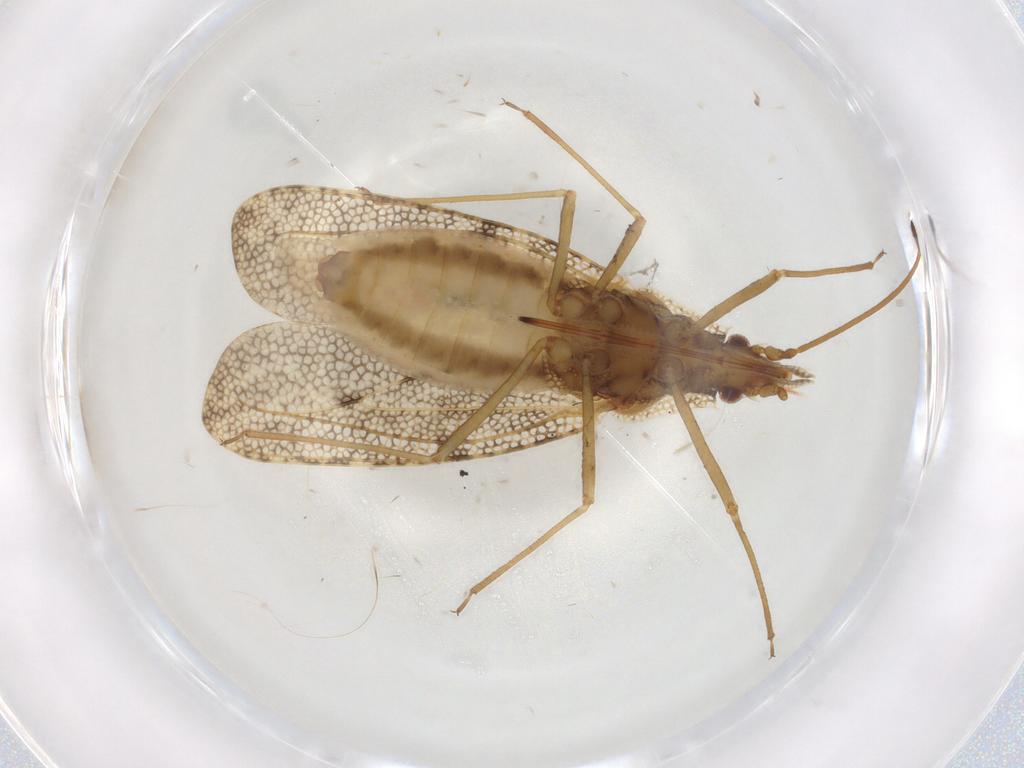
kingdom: Animalia
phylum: Arthropoda
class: Insecta
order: Hemiptera
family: Tingidae
